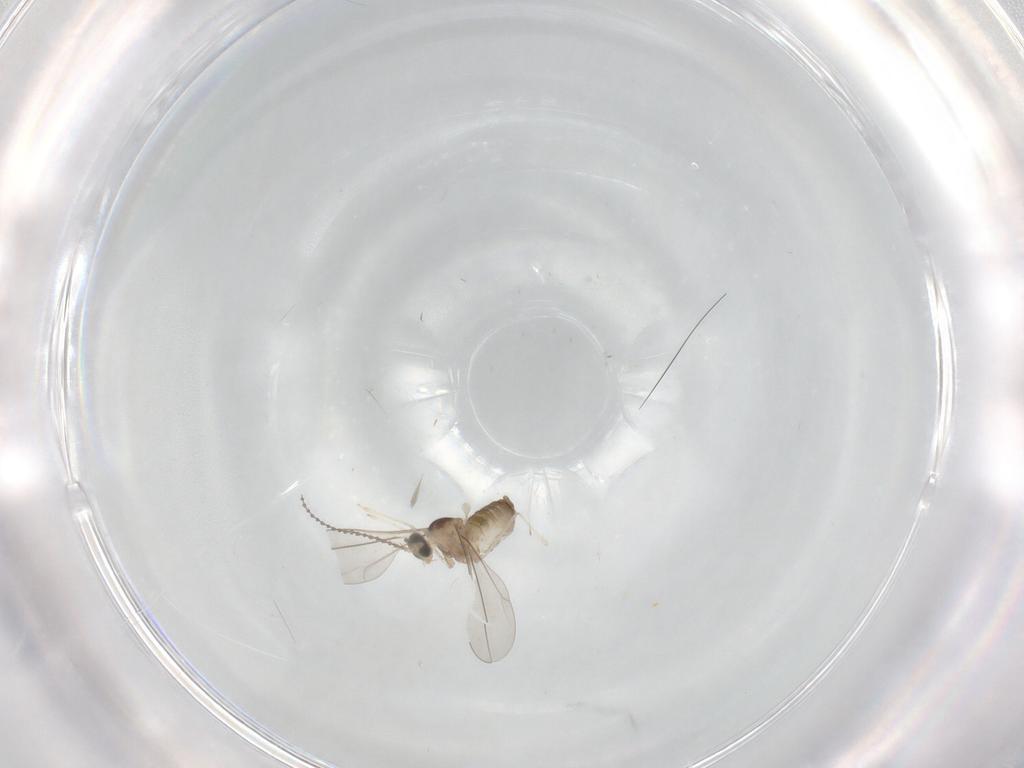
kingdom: Animalia
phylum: Arthropoda
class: Insecta
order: Diptera
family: Cecidomyiidae
